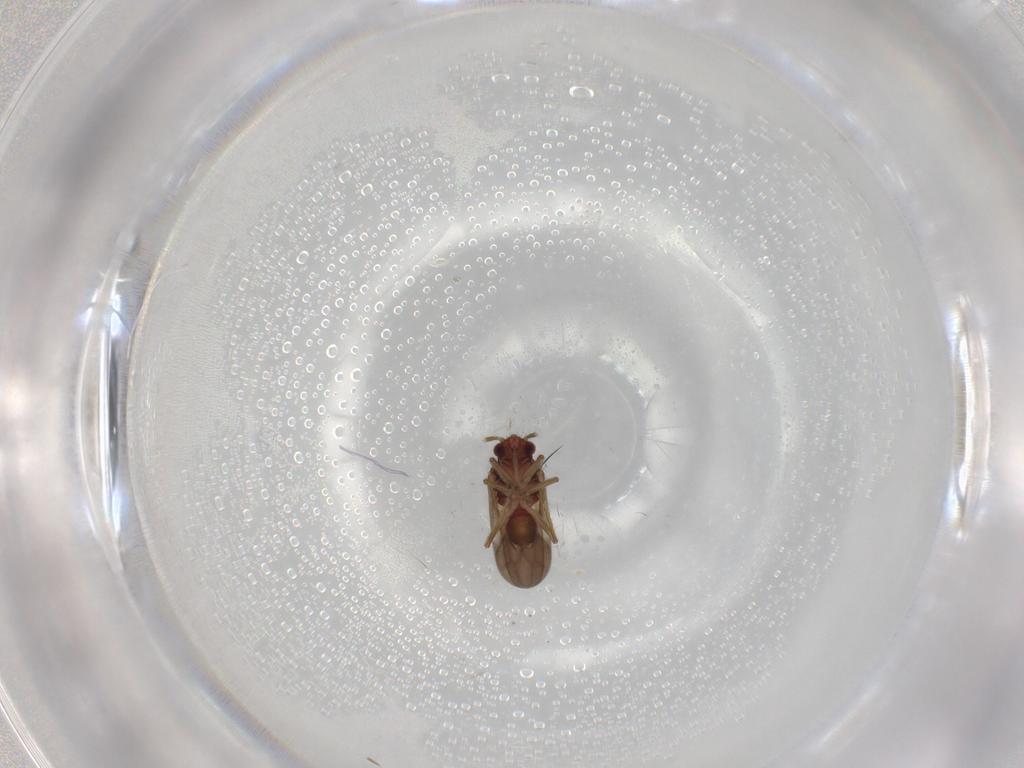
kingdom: Animalia
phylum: Arthropoda
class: Insecta
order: Hemiptera
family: Ceratocombidae
